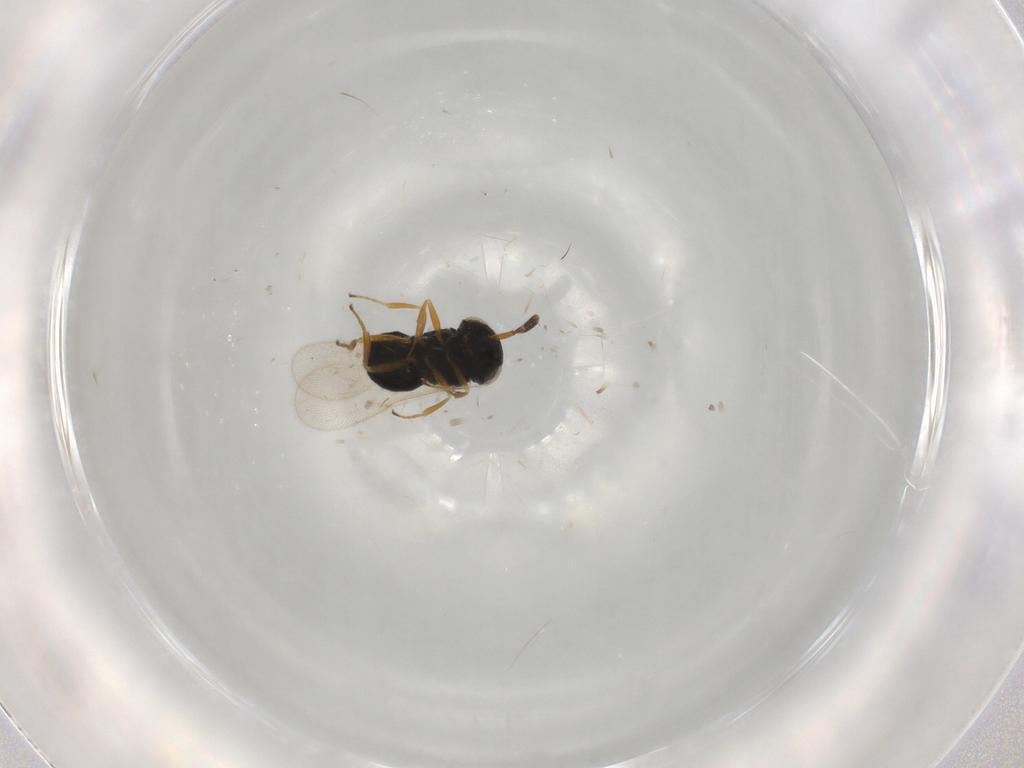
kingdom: Animalia
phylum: Arthropoda
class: Insecta
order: Hymenoptera
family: Scelionidae
